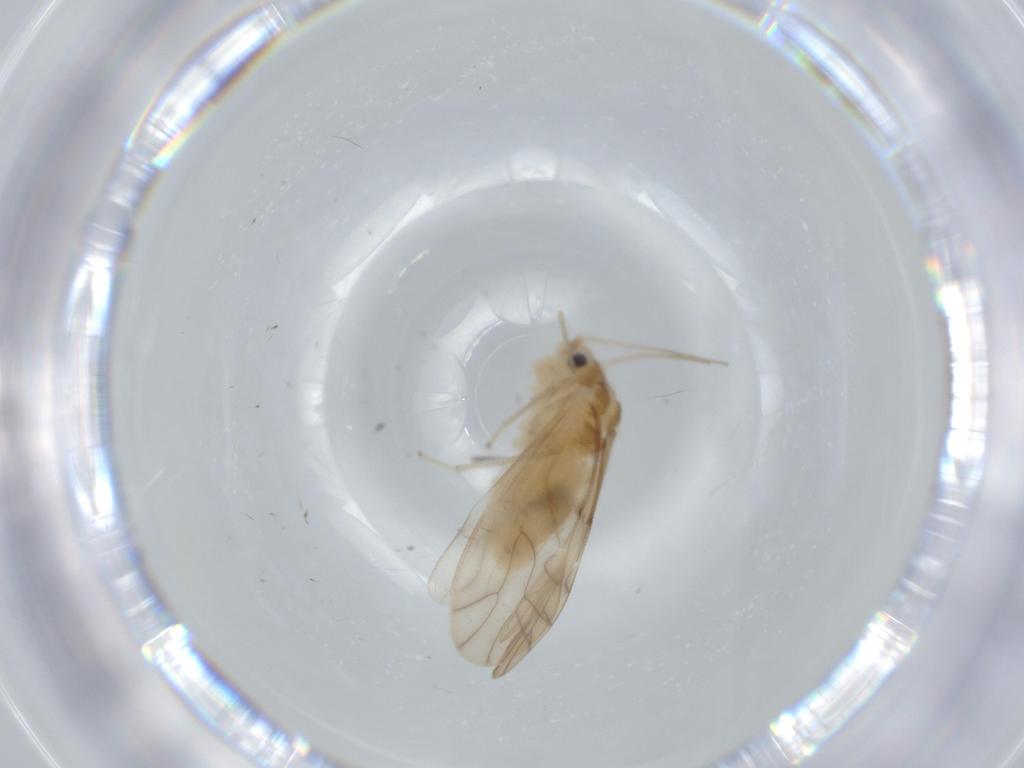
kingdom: Animalia
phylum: Arthropoda
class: Insecta
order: Psocodea
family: Caeciliusidae
